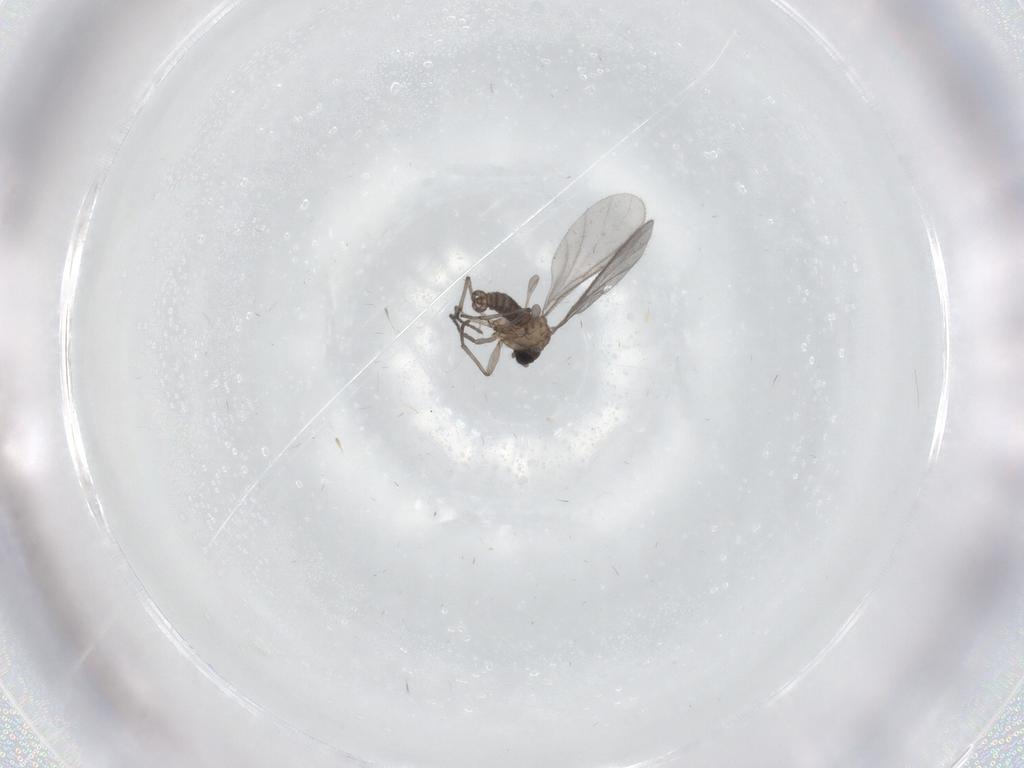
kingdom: Animalia
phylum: Arthropoda
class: Insecta
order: Diptera
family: Sciaridae
